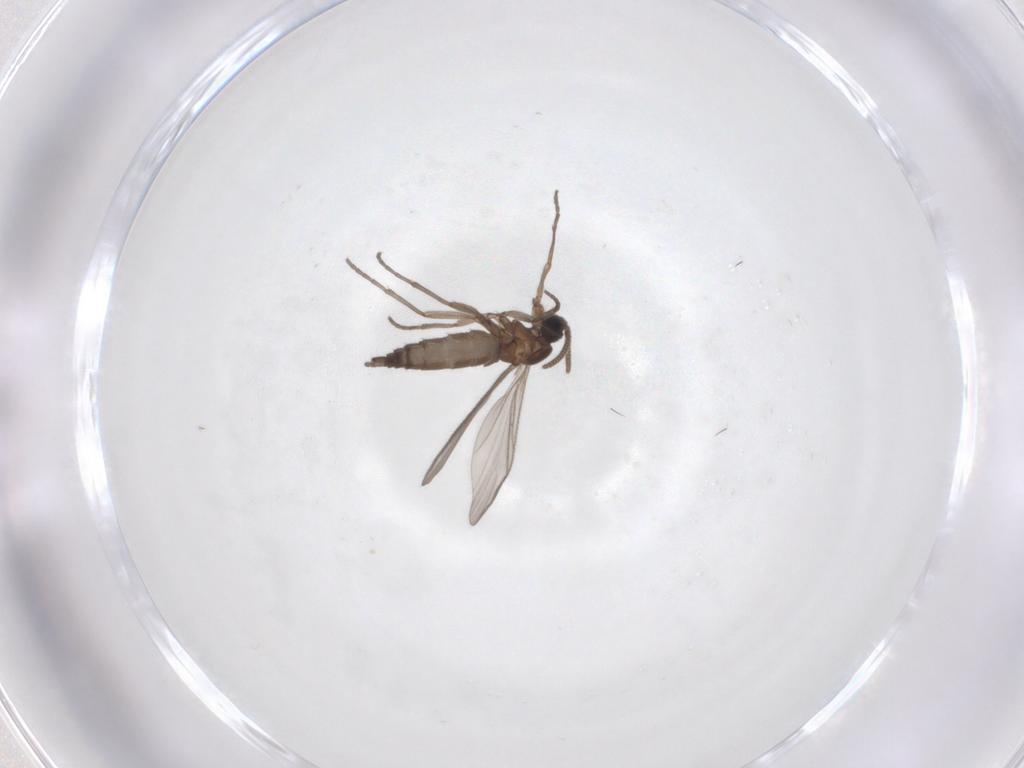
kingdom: Animalia
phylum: Arthropoda
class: Insecta
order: Diptera
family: Sciaridae
